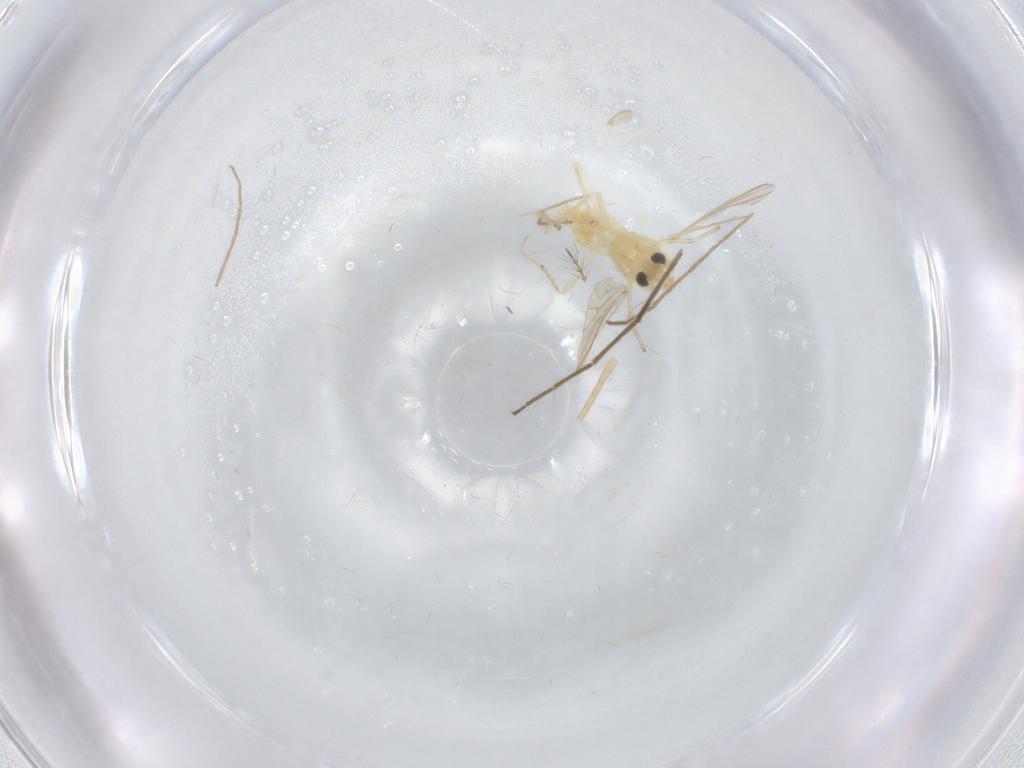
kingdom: Animalia
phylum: Arthropoda
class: Insecta
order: Diptera
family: Chironomidae
